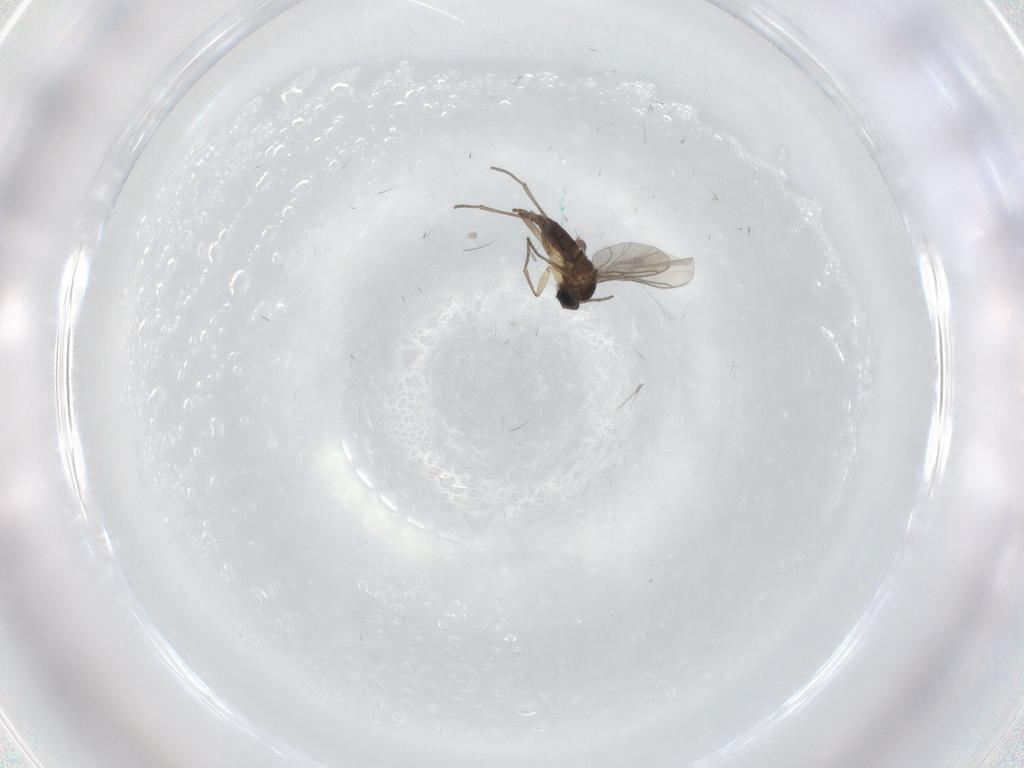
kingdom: Animalia
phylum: Arthropoda
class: Insecta
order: Diptera
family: Sciaridae
